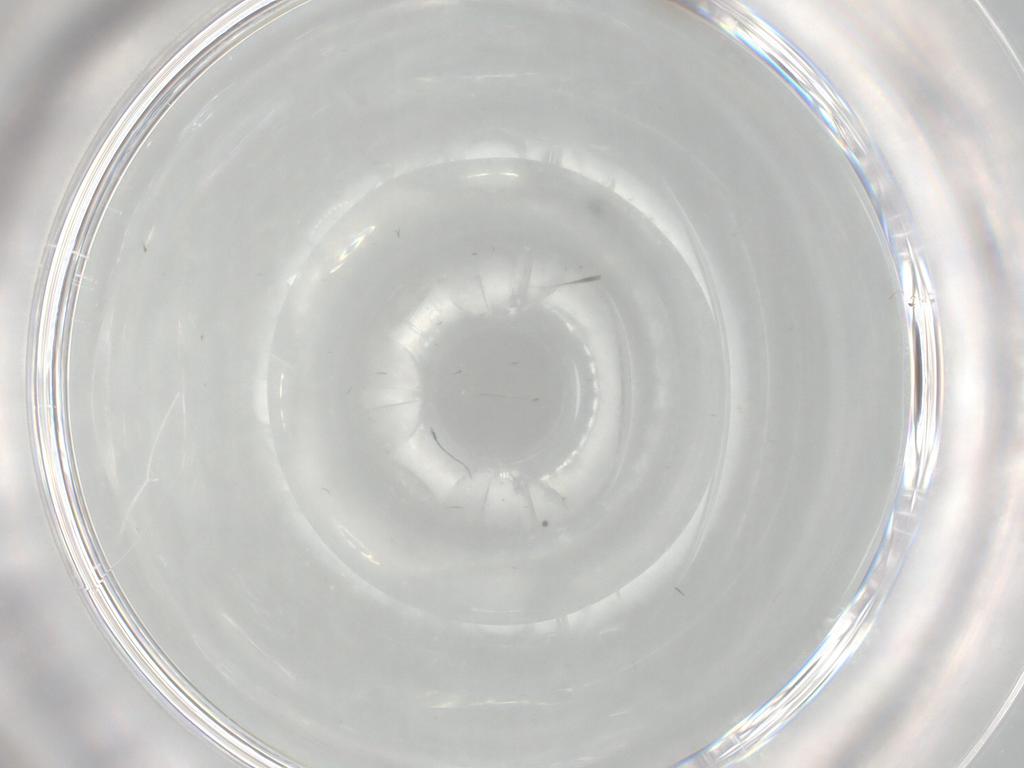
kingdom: Animalia
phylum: Arthropoda
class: Insecta
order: Diptera
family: Cecidomyiidae
